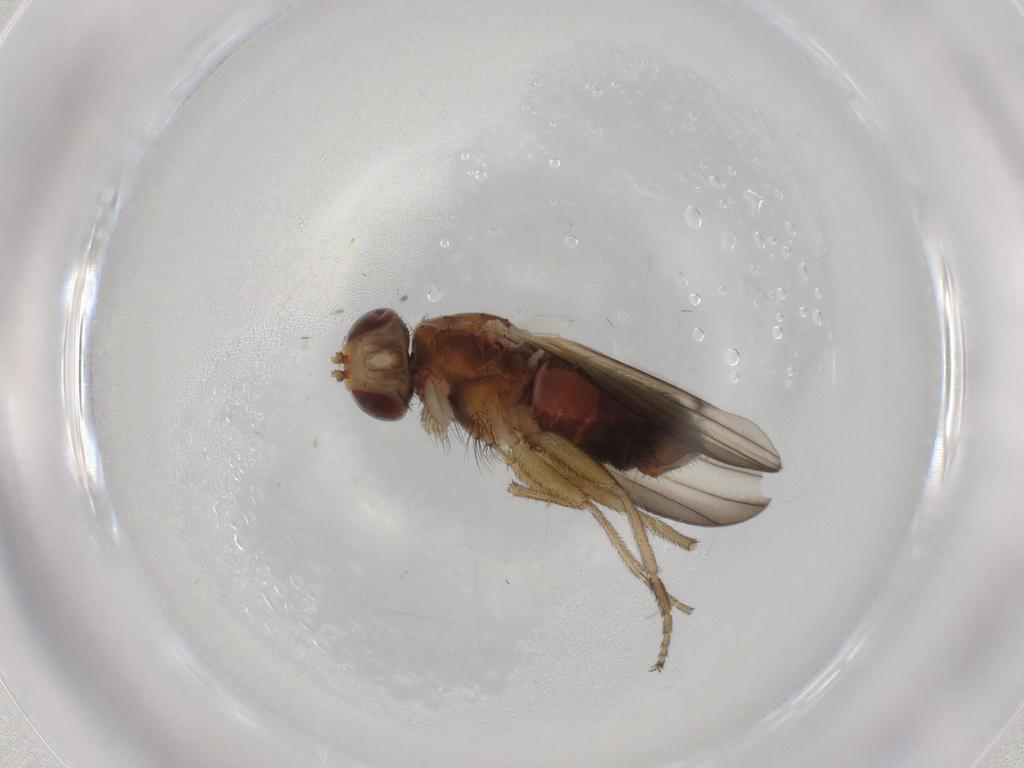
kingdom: Animalia
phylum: Arthropoda
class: Insecta
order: Diptera
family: Heleomyzidae
